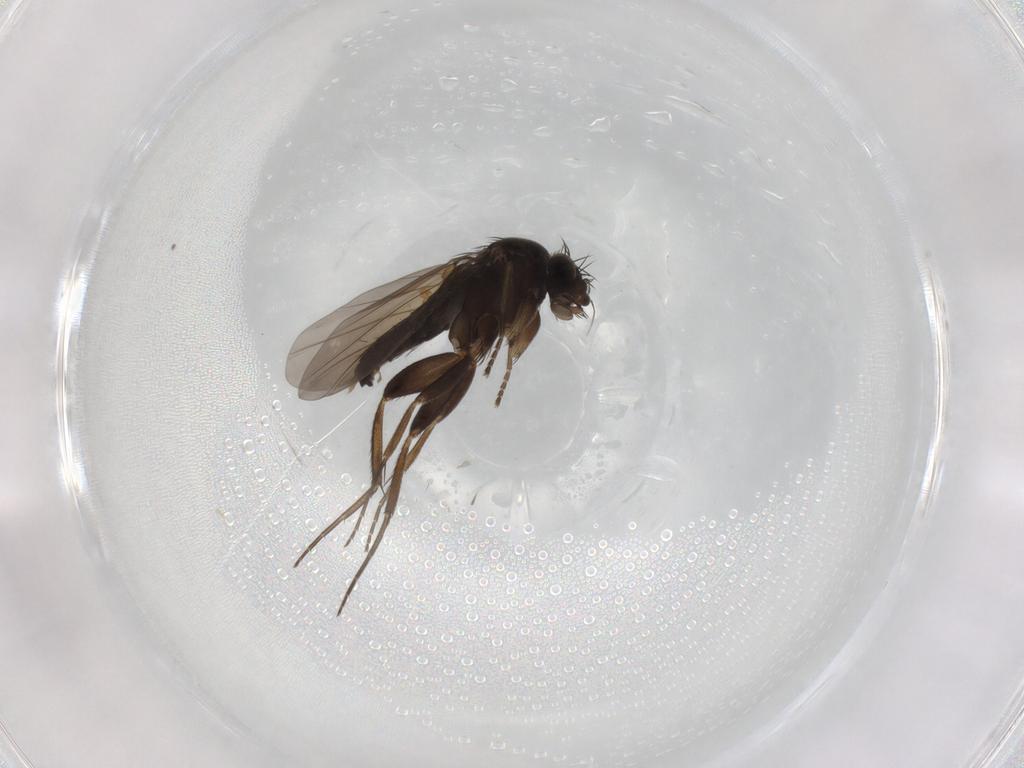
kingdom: Animalia
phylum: Arthropoda
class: Insecta
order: Diptera
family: Phoridae
